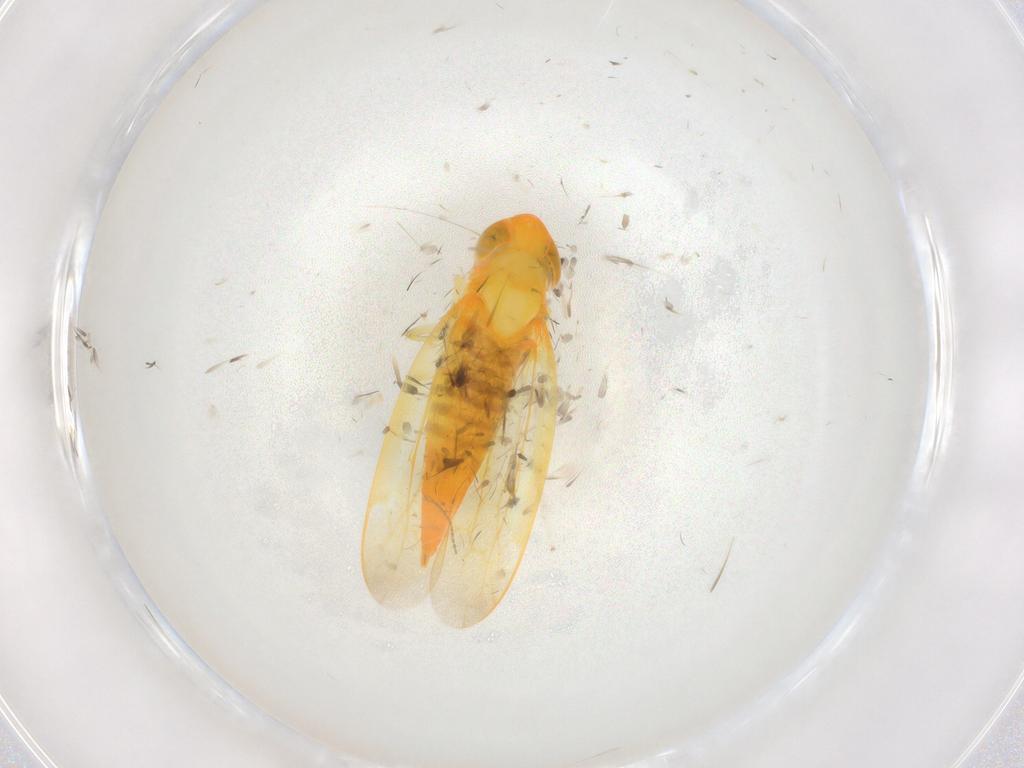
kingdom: Animalia
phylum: Arthropoda
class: Insecta
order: Hemiptera
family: Cicadellidae
